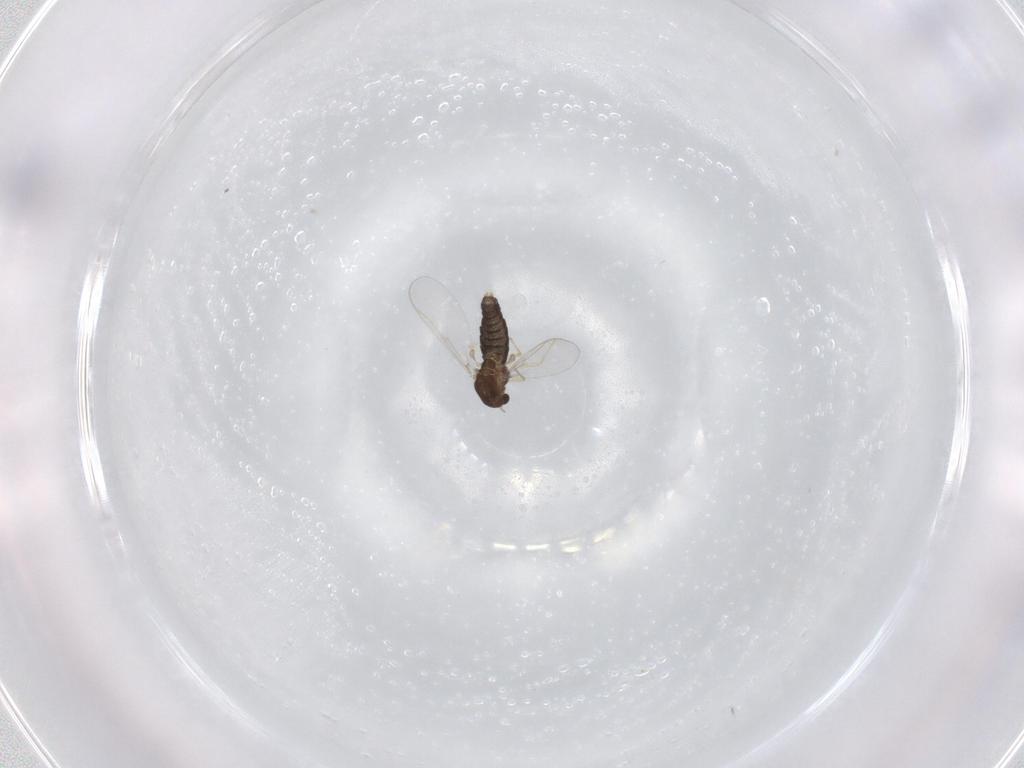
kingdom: Animalia
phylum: Arthropoda
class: Insecta
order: Diptera
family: Chironomidae
